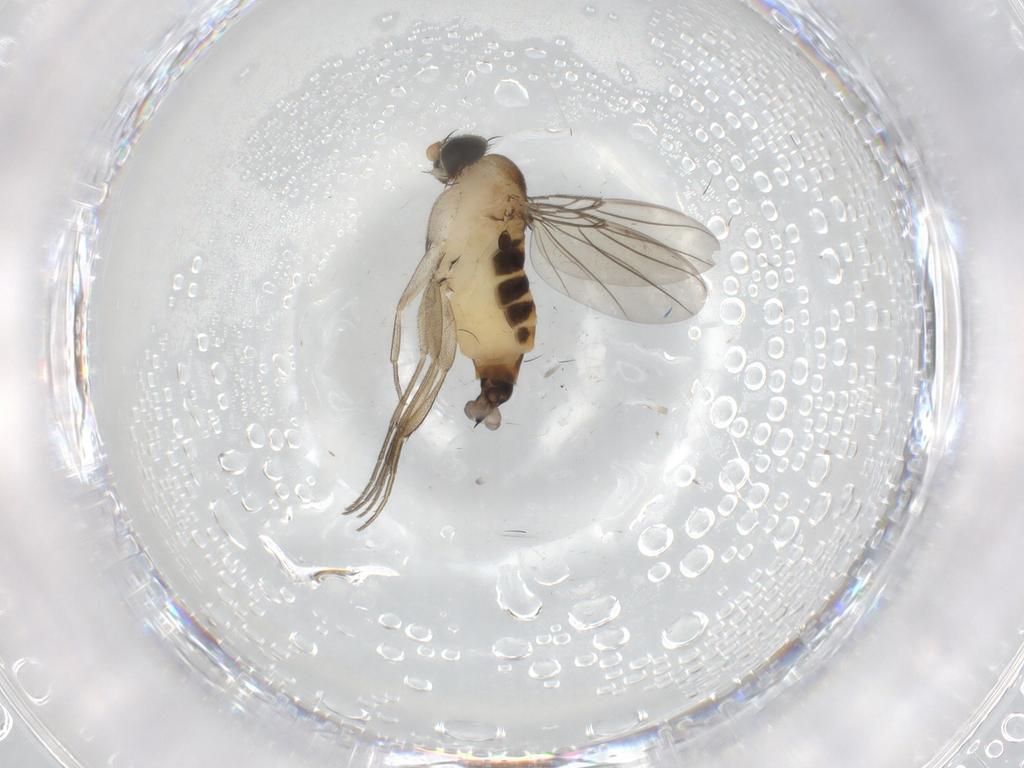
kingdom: Animalia
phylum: Arthropoda
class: Insecta
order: Diptera
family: Phoridae
